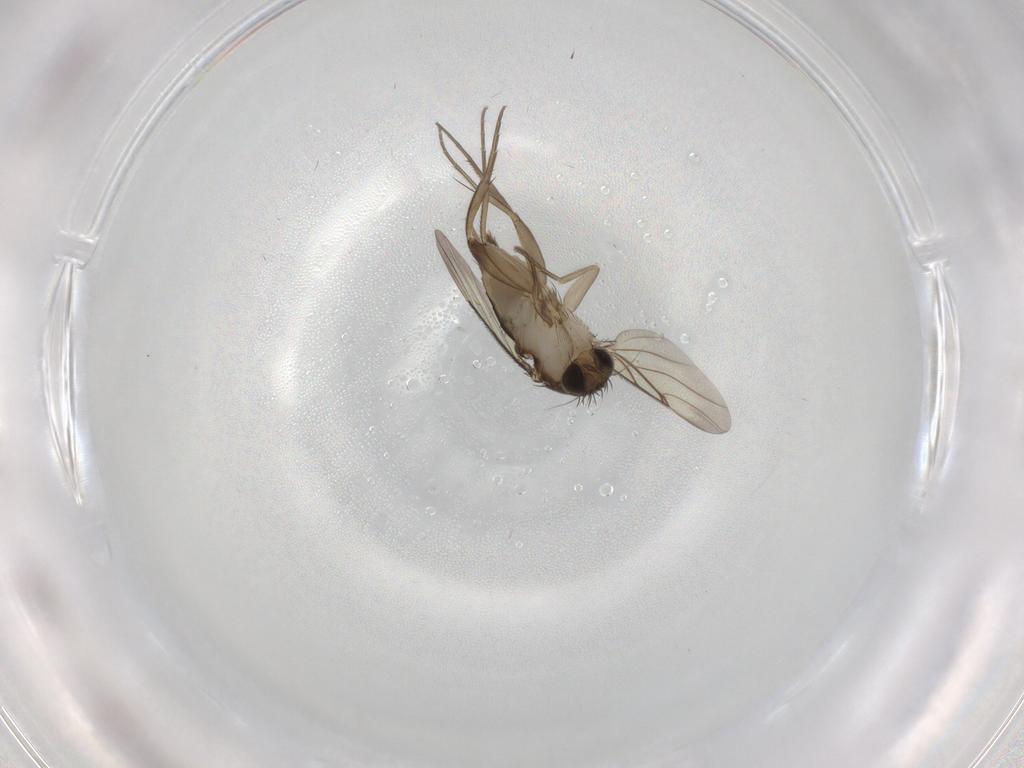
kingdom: Animalia
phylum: Arthropoda
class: Insecta
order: Diptera
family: Phoridae
